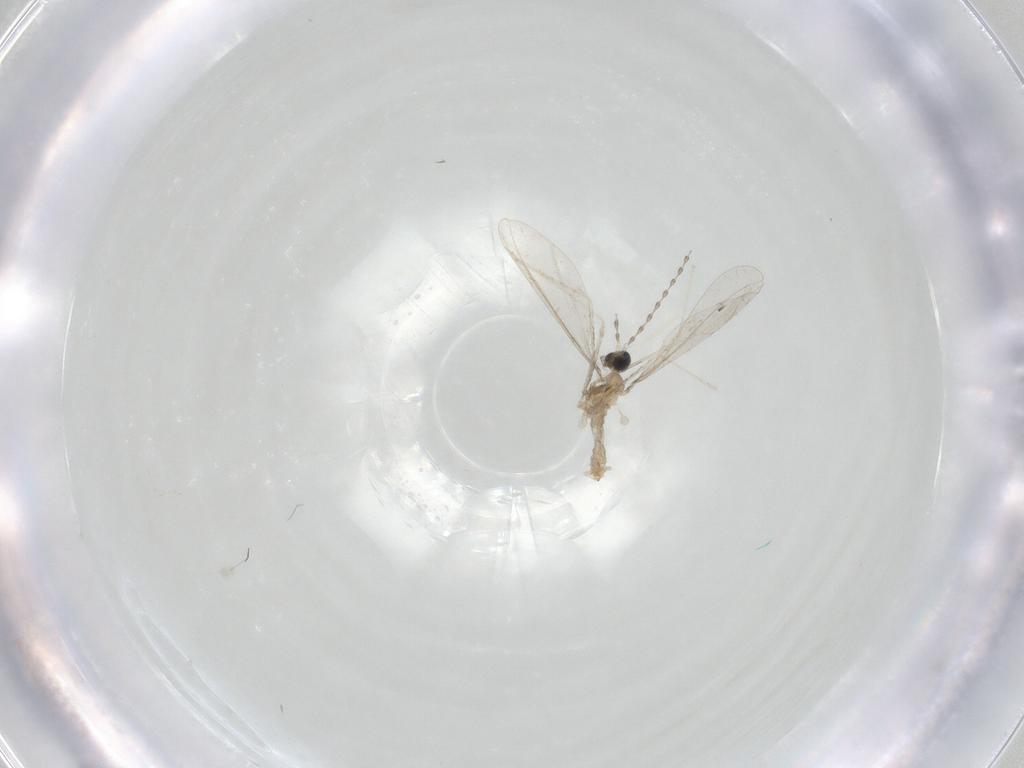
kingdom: Animalia
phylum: Arthropoda
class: Insecta
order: Diptera
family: Cecidomyiidae
